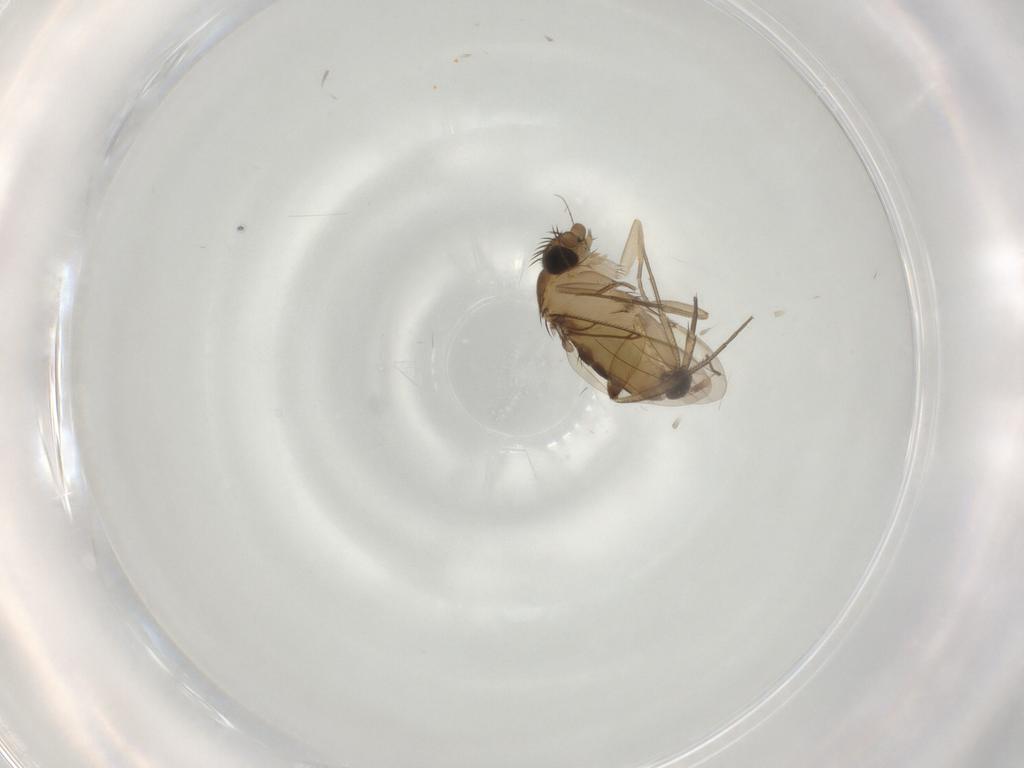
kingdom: Animalia
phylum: Arthropoda
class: Insecta
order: Diptera
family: Phoridae
